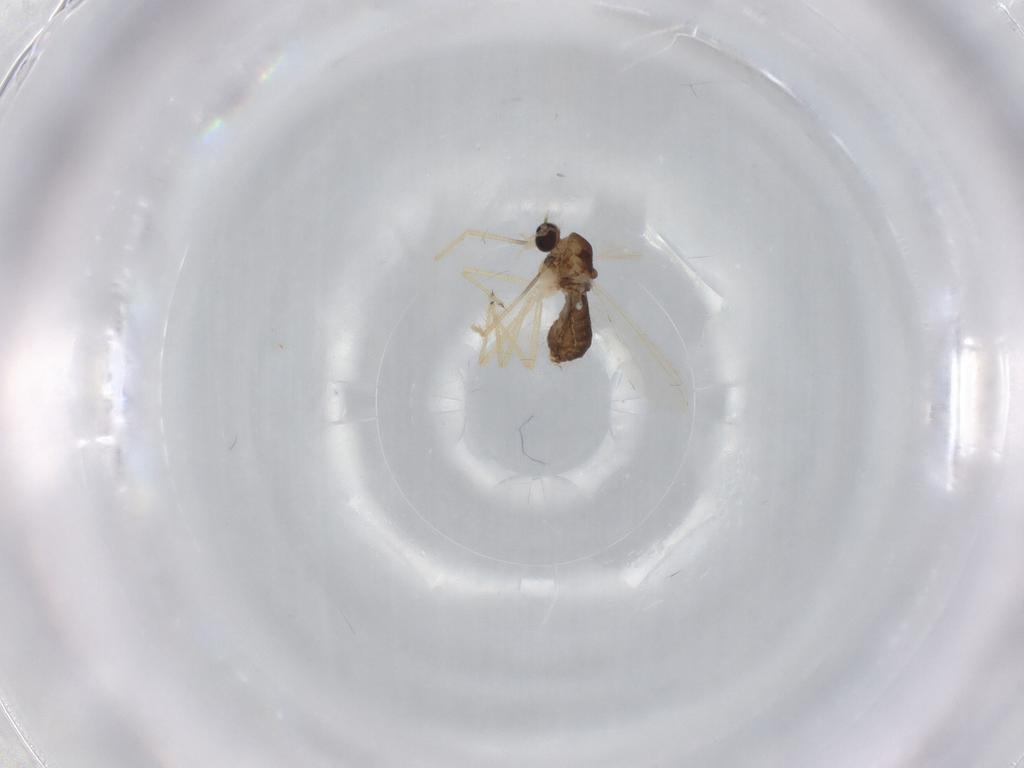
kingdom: Animalia
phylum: Arthropoda
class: Insecta
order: Diptera
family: Chironomidae
